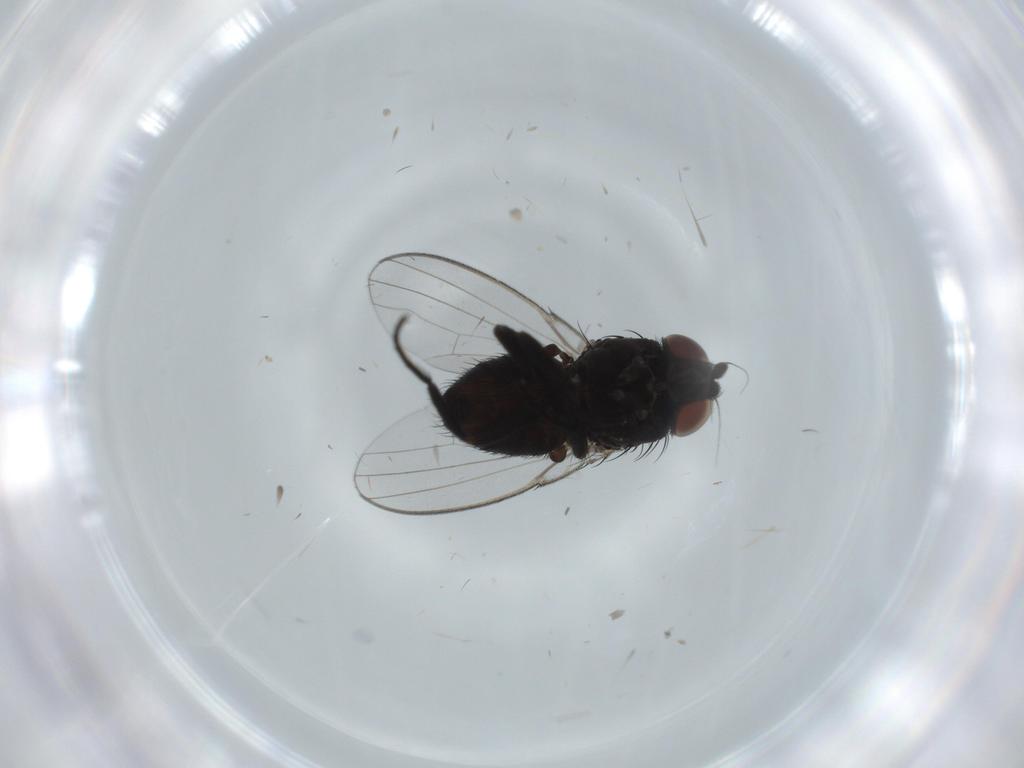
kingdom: Animalia
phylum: Arthropoda
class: Insecta
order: Diptera
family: Milichiidae
